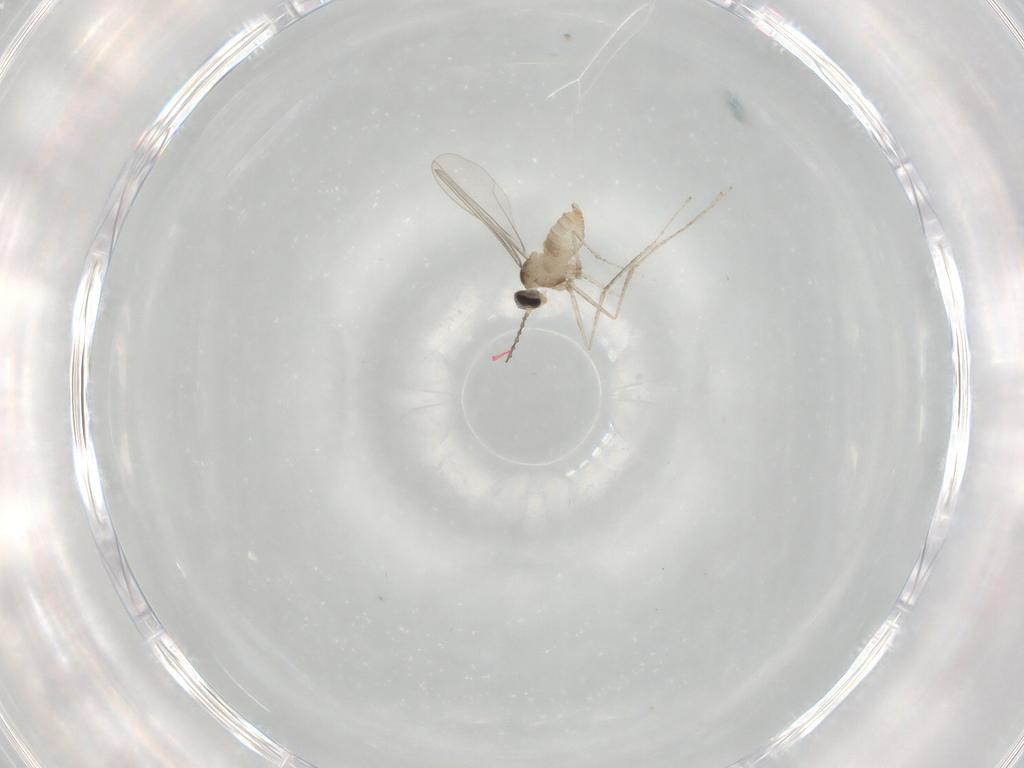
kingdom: Animalia
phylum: Arthropoda
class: Insecta
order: Diptera
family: Cecidomyiidae
